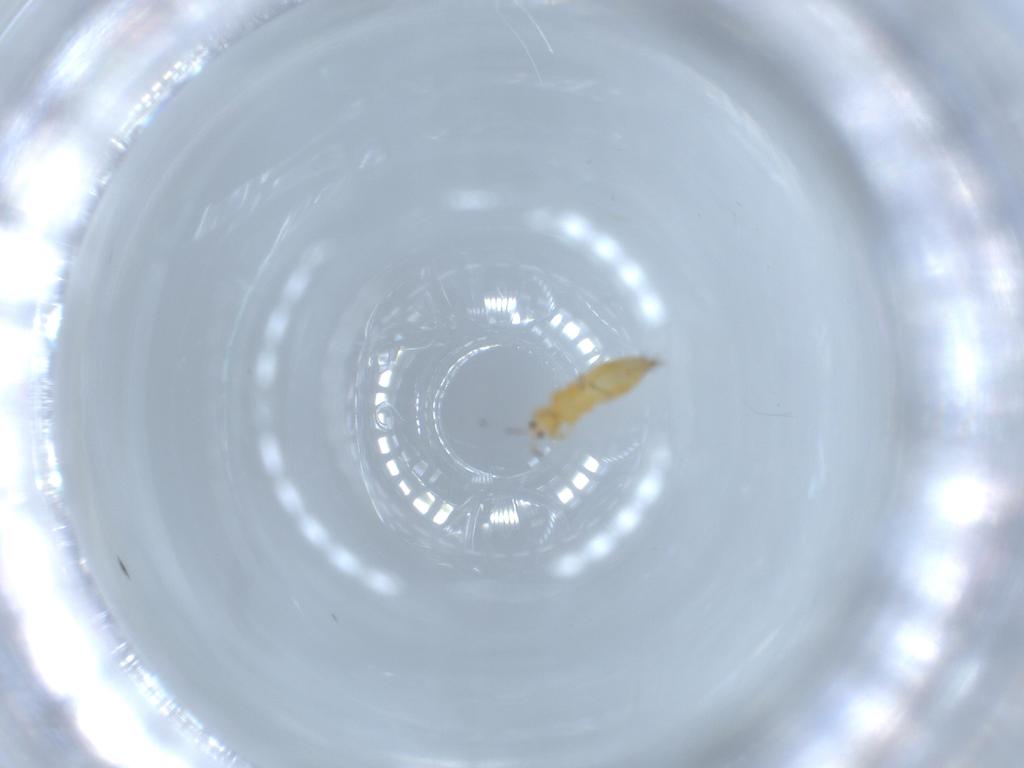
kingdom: Animalia
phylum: Arthropoda
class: Insecta
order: Thysanoptera
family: Thripidae
